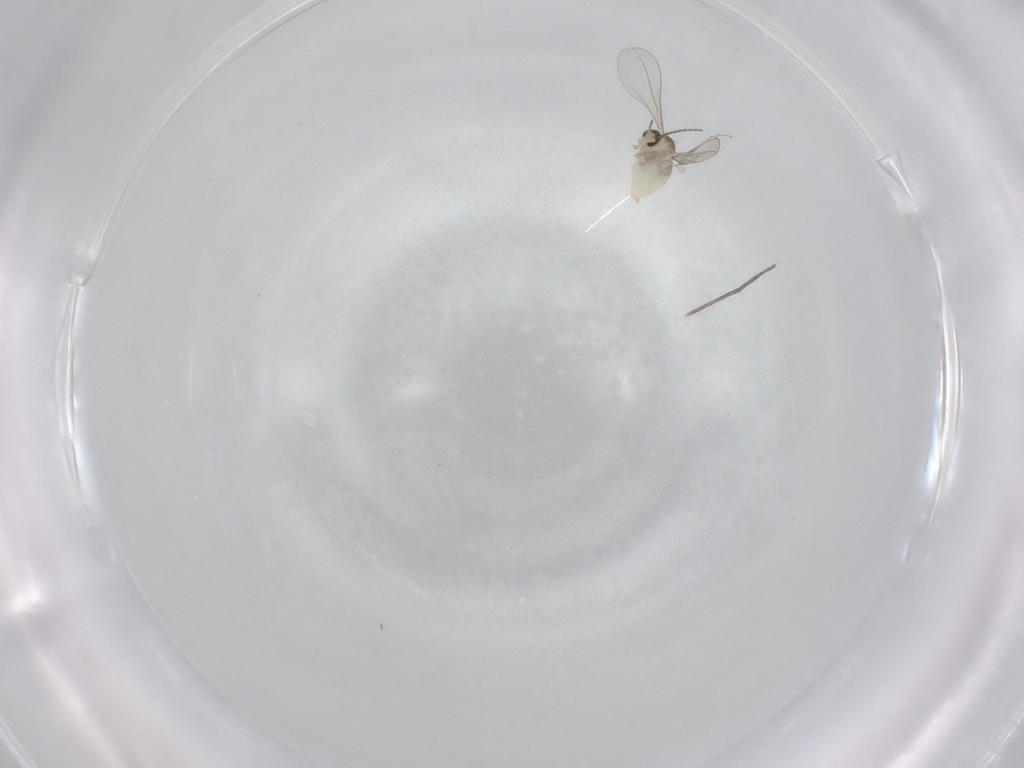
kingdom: Animalia
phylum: Arthropoda
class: Insecta
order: Diptera
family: Cecidomyiidae
